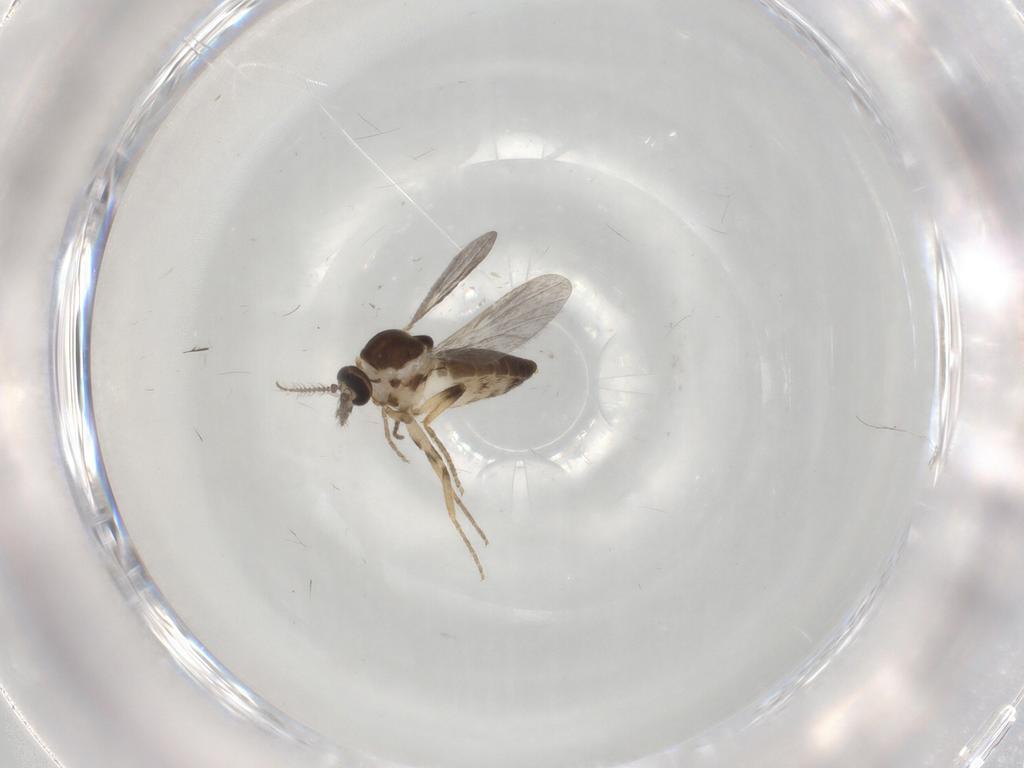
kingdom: Animalia
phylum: Arthropoda
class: Insecta
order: Diptera
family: Ceratopogonidae
